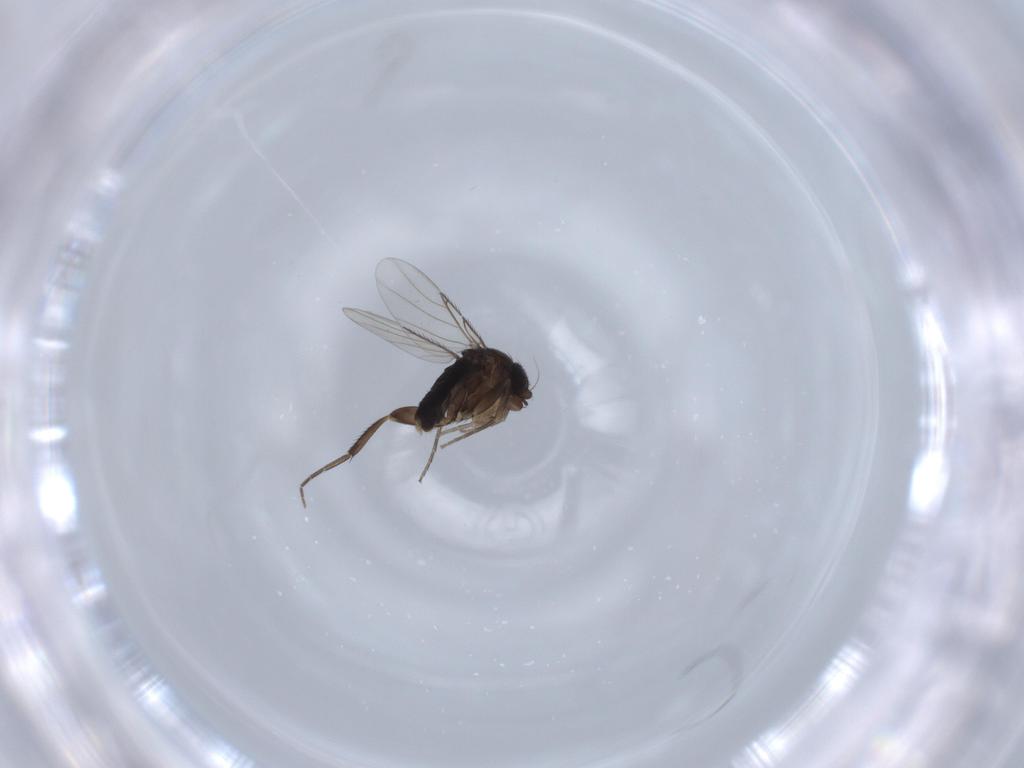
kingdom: Animalia
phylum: Arthropoda
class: Insecta
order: Diptera
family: Phoridae
